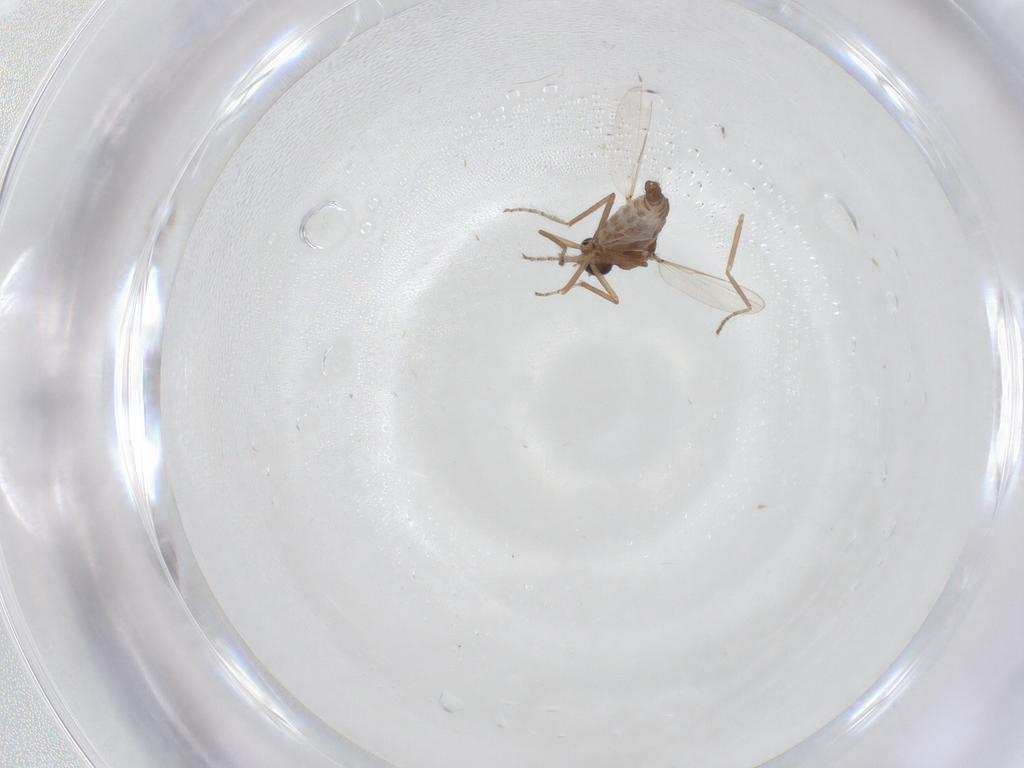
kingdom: Animalia
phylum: Arthropoda
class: Insecta
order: Diptera
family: Ceratopogonidae
